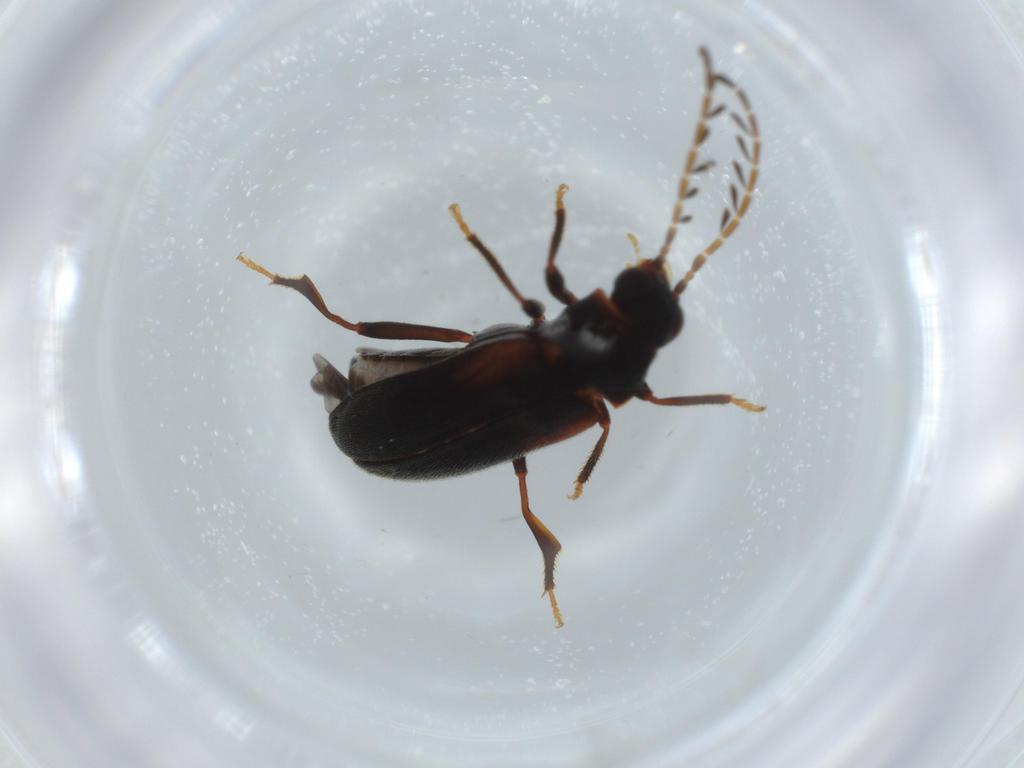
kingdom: Animalia
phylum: Arthropoda
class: Insecta
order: Coleoptera
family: Ptilodactylidae
